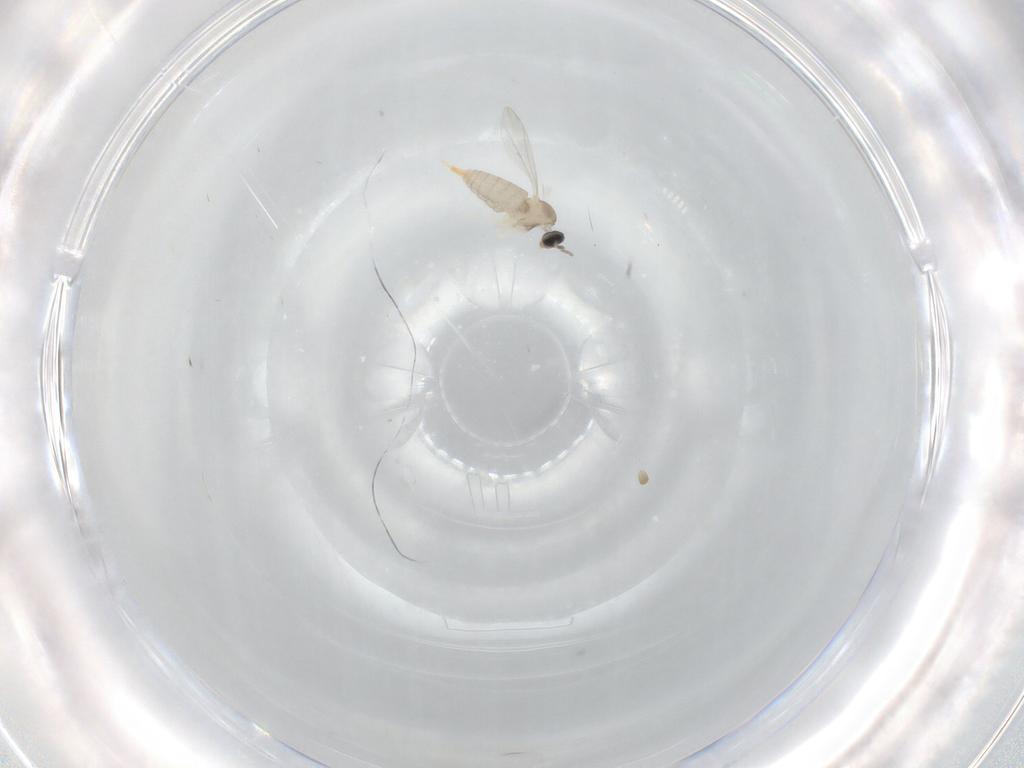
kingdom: Animalia
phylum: Arthropoda
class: Insecta
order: Diptera
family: Cecidomyiidae
